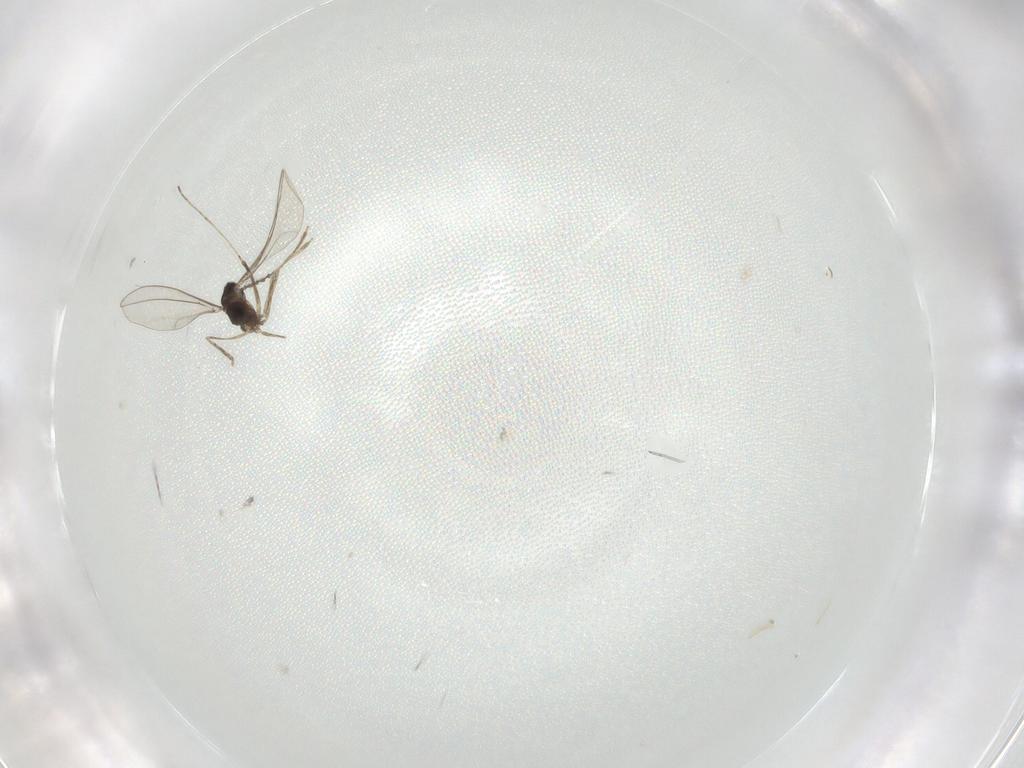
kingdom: Animalia
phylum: Arthropoda
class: Insecta
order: Diptera
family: Cecidomyiidae
